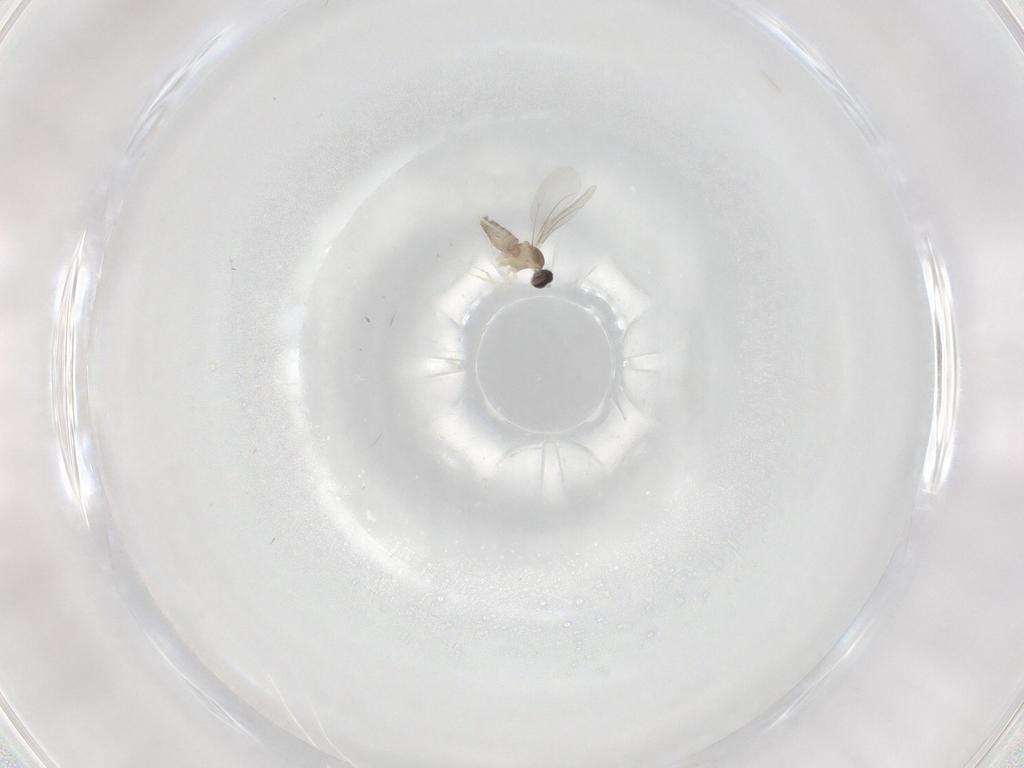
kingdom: Animalia
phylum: Arthropoda
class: Insecta
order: Diptera
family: Cecidomyiidae
